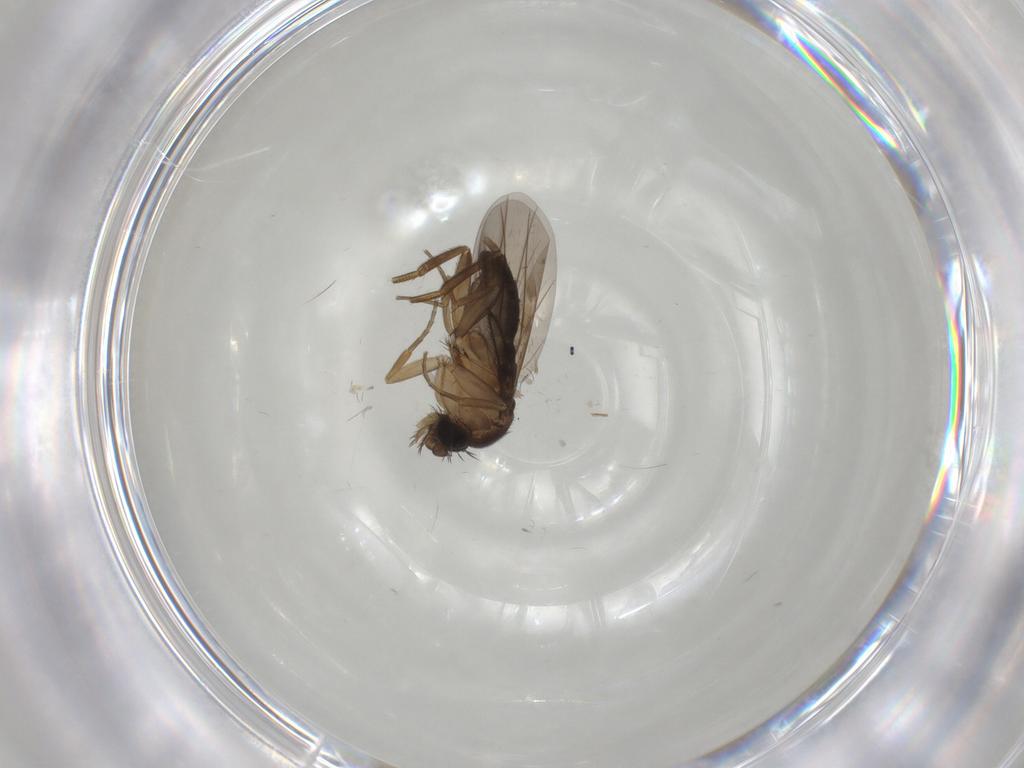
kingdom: Animalia
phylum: Arthropoda
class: Insecta
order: Diptera
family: Phoridae
